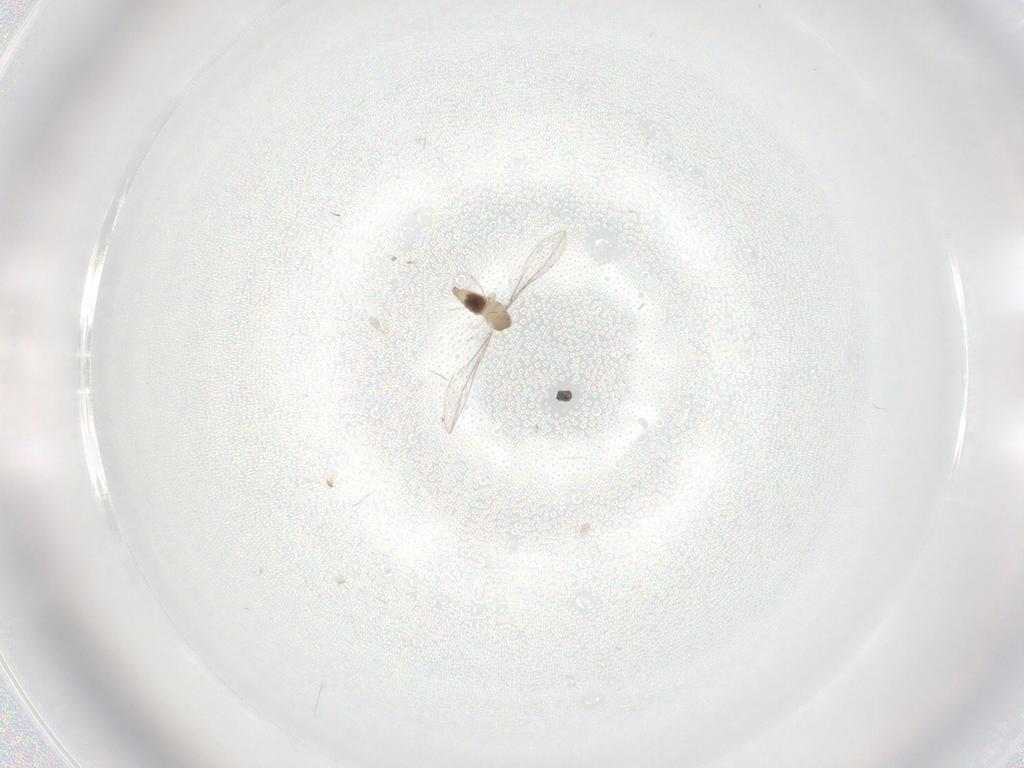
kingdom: Animalia
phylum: Arthropoda
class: Insecta
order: Diptera
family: Cecidomyiidae
